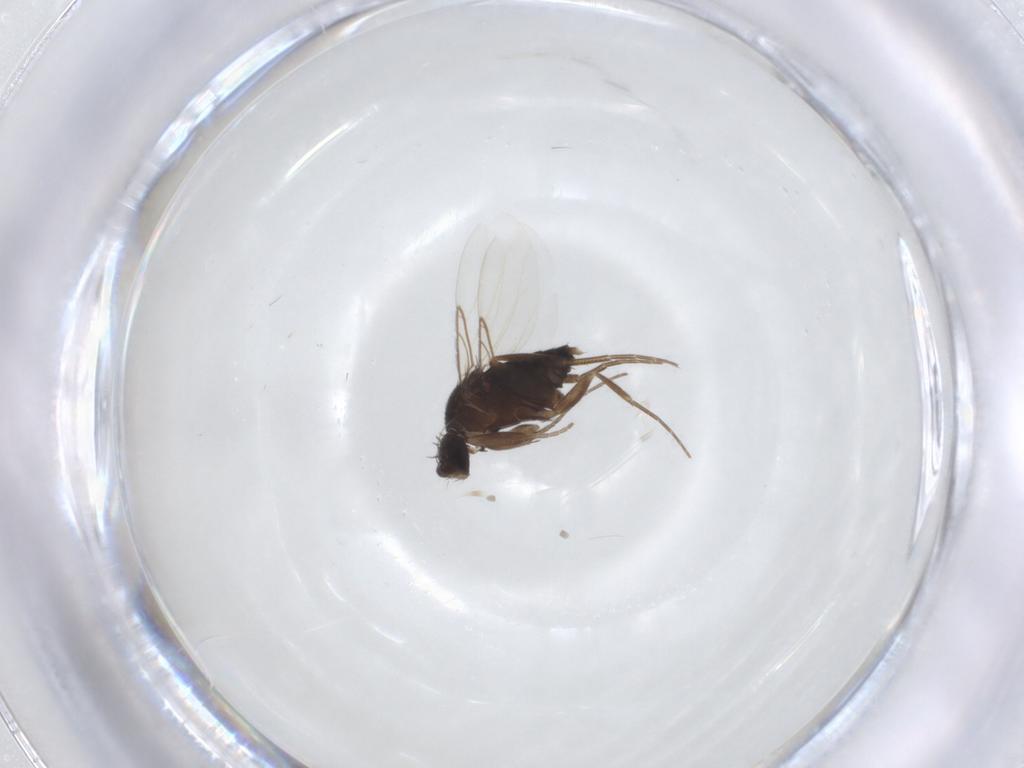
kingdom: Animalia
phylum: Arthropoda
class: Insecta
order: Diptera
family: Phoridae
